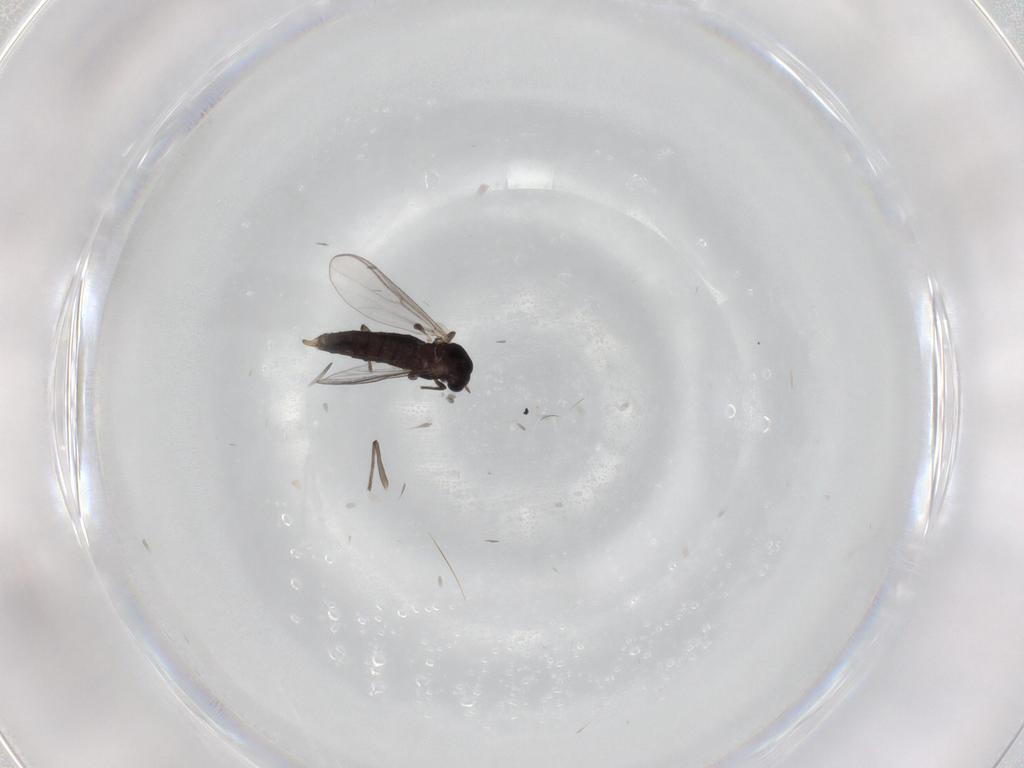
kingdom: Animalia
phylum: Arthropoda
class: Insecta
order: Diptera
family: Chironomidae
